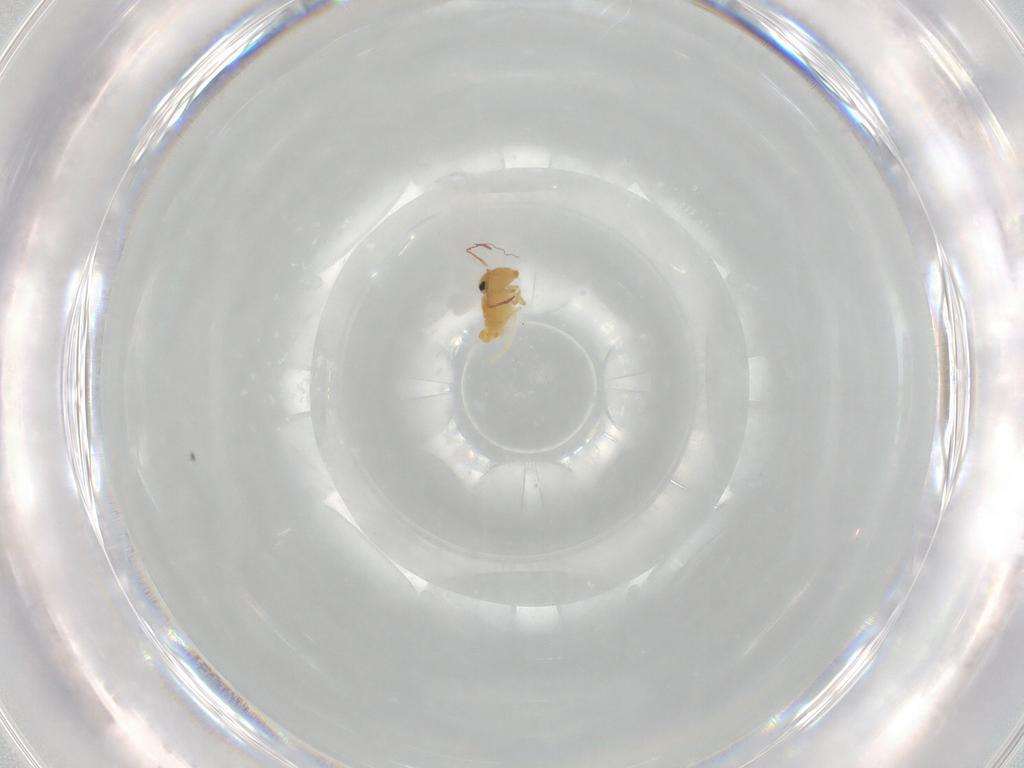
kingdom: Animalia
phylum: Arthropoda
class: Collembola
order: Symphypleona
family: Bourletiellidae
